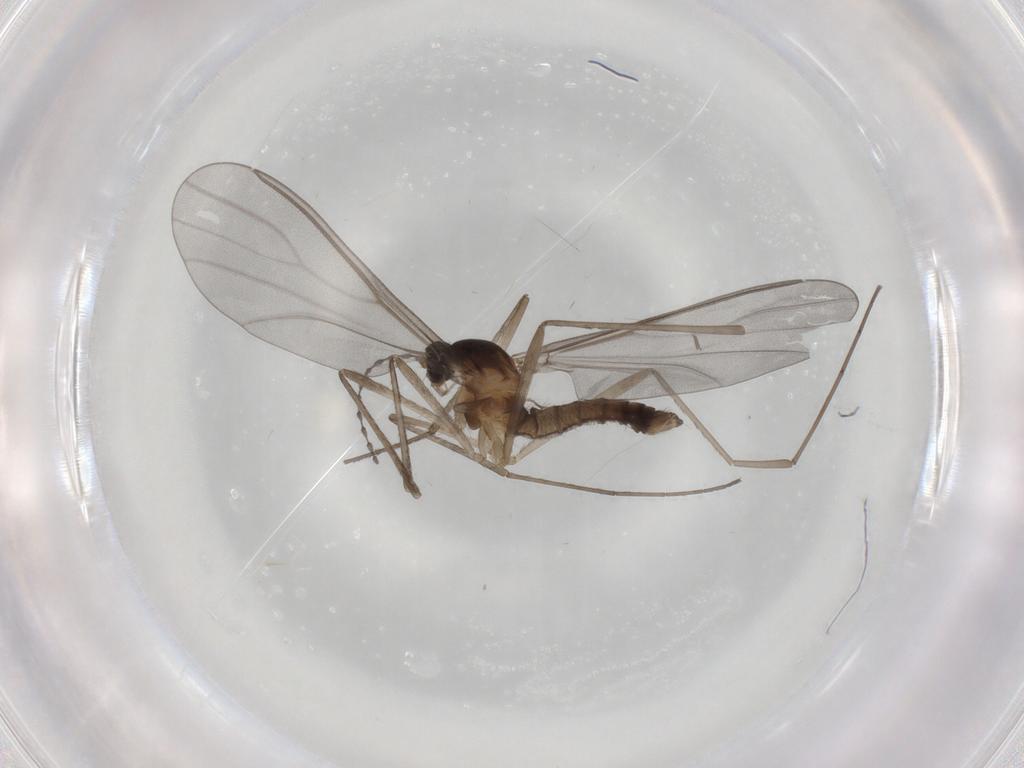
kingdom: Animalia
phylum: Arthropoda
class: Insecta
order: Diptera
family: Cecidomyiidae
